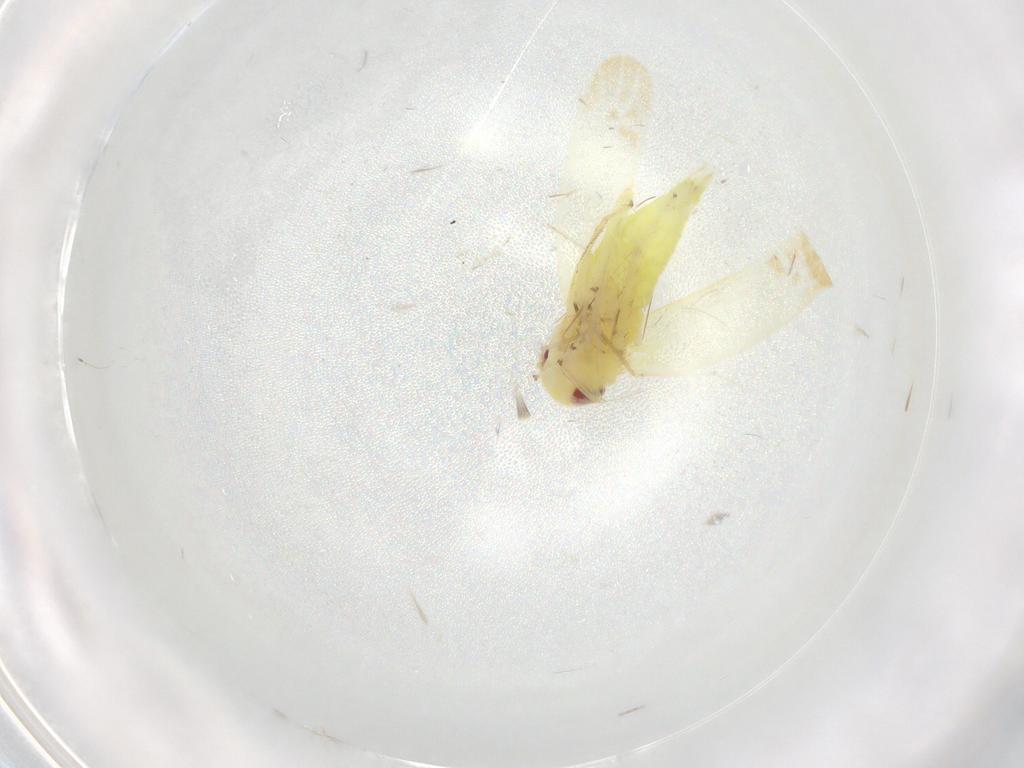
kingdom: Animalia
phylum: Arthropoda
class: Insecta
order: Hemiptera
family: Cicadellidae
